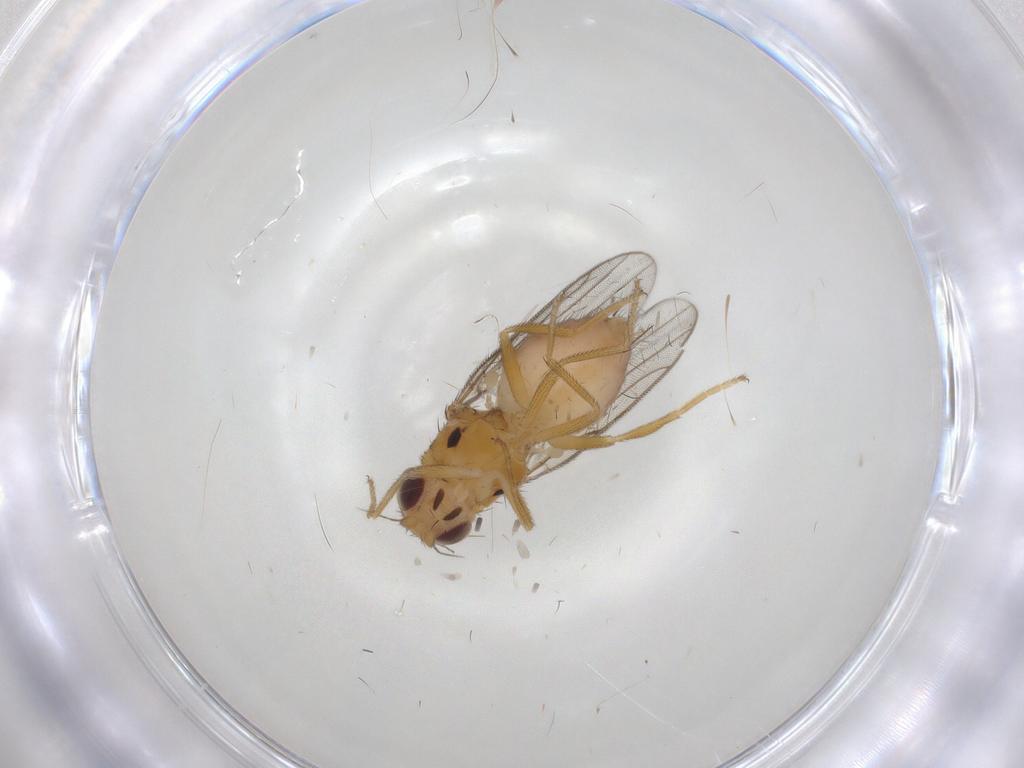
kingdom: Animalia
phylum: Arthropoda
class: Insecta
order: Diptera
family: Chloropidae
